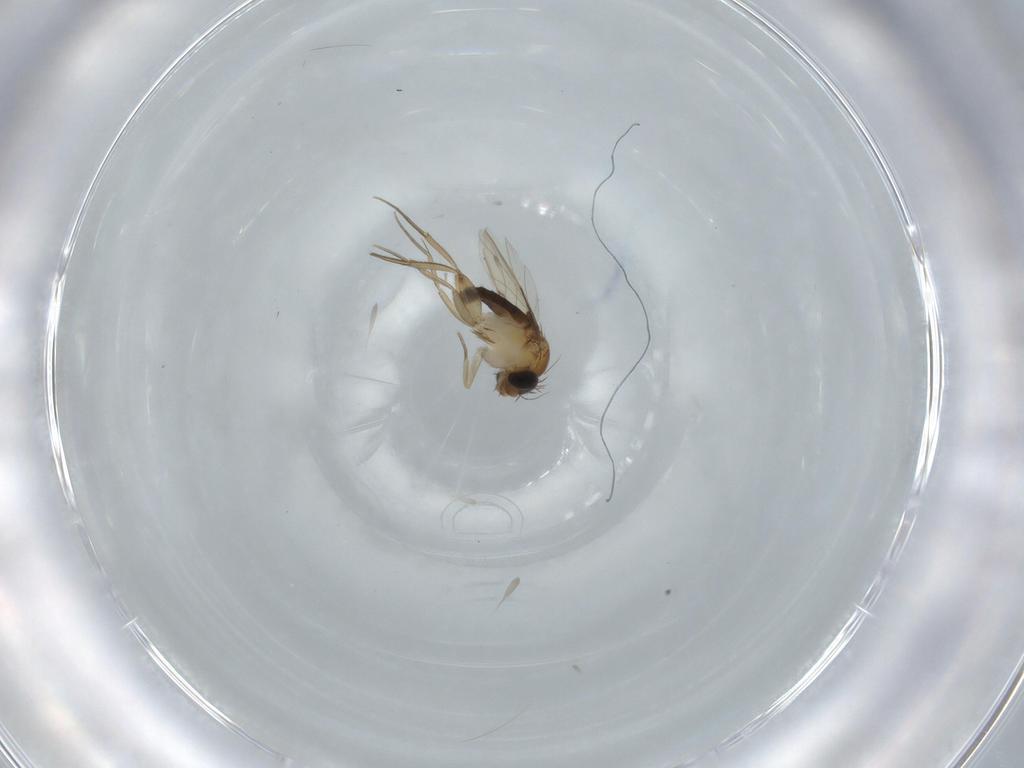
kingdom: Animalia
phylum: Arthropoda
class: Insecta
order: Diptera
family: Phoridae
